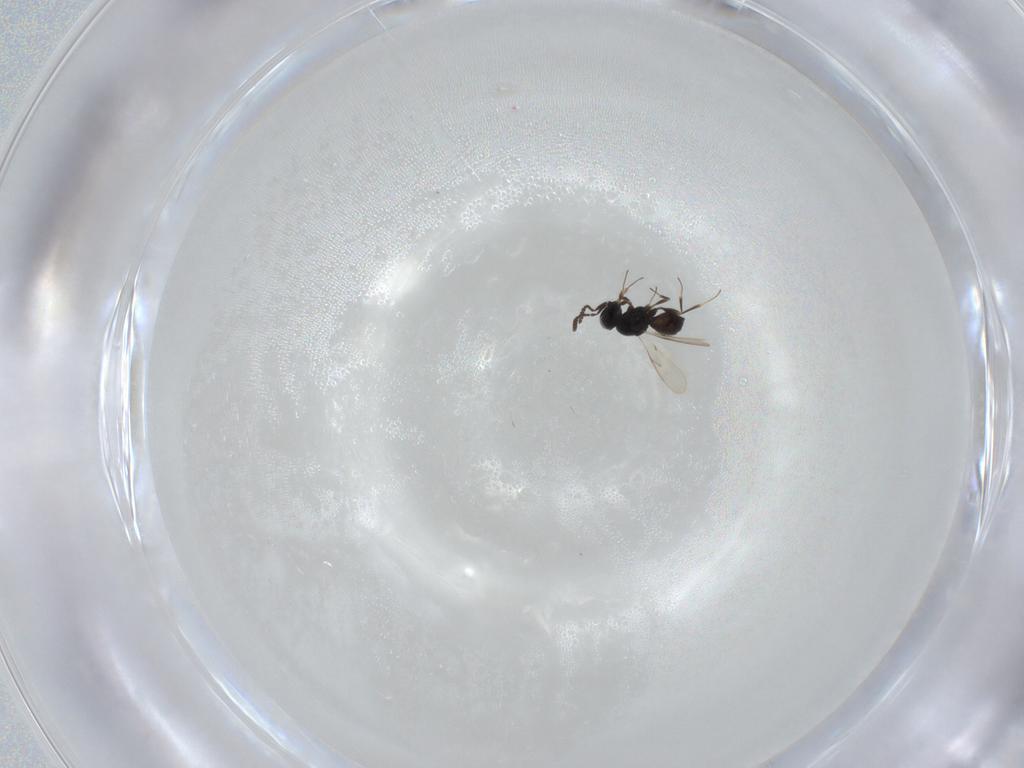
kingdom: Animalia
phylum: Arthropoda
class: Insecta
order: Hymenoptera
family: Scelionidae
